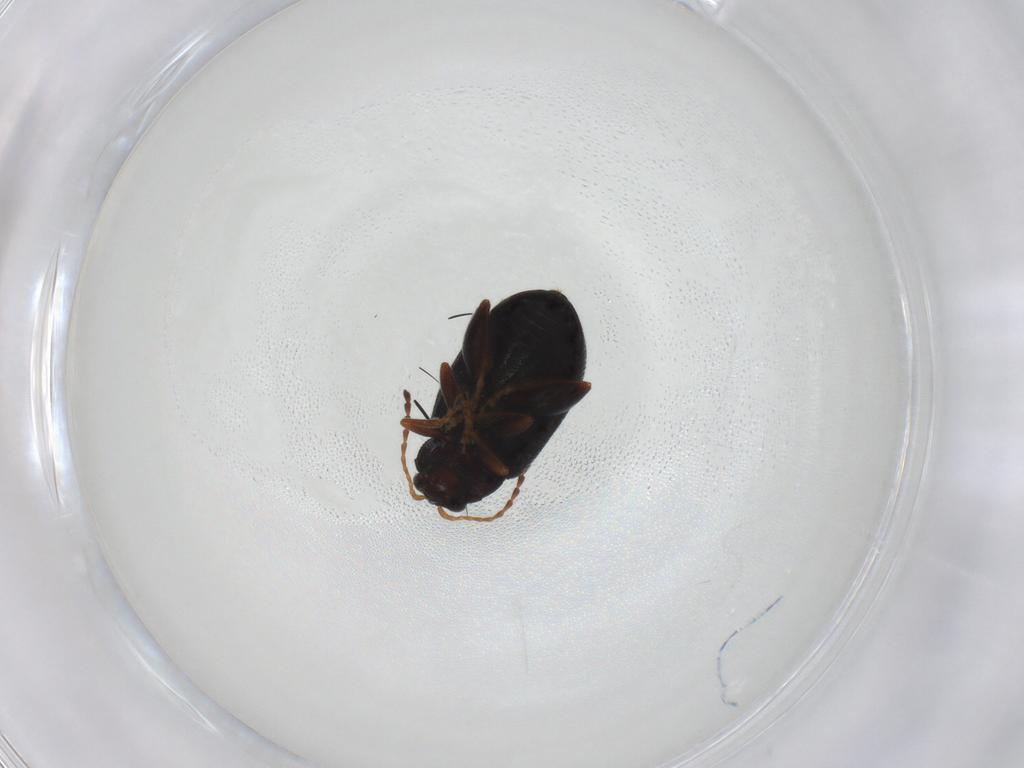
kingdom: Animalia
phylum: Arthropoda
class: Insecta
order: Coleoptera
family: Chrysomelidae
